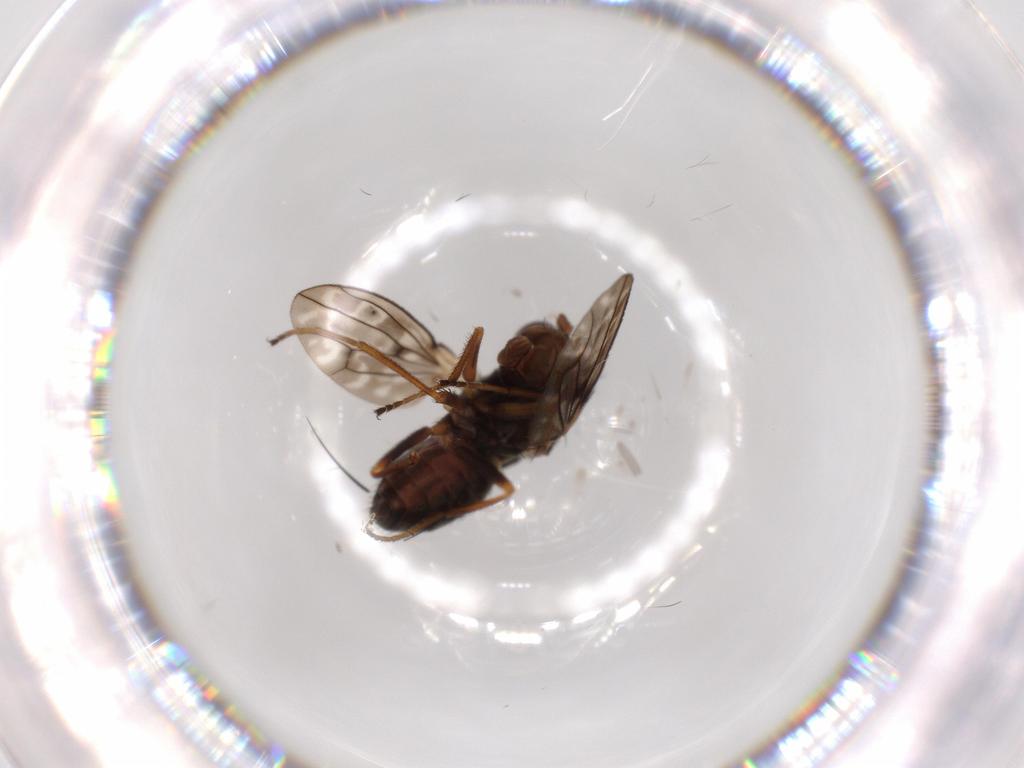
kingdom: Animalia
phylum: Arthropoda
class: Insecta
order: Diptera
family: Ephydridae
